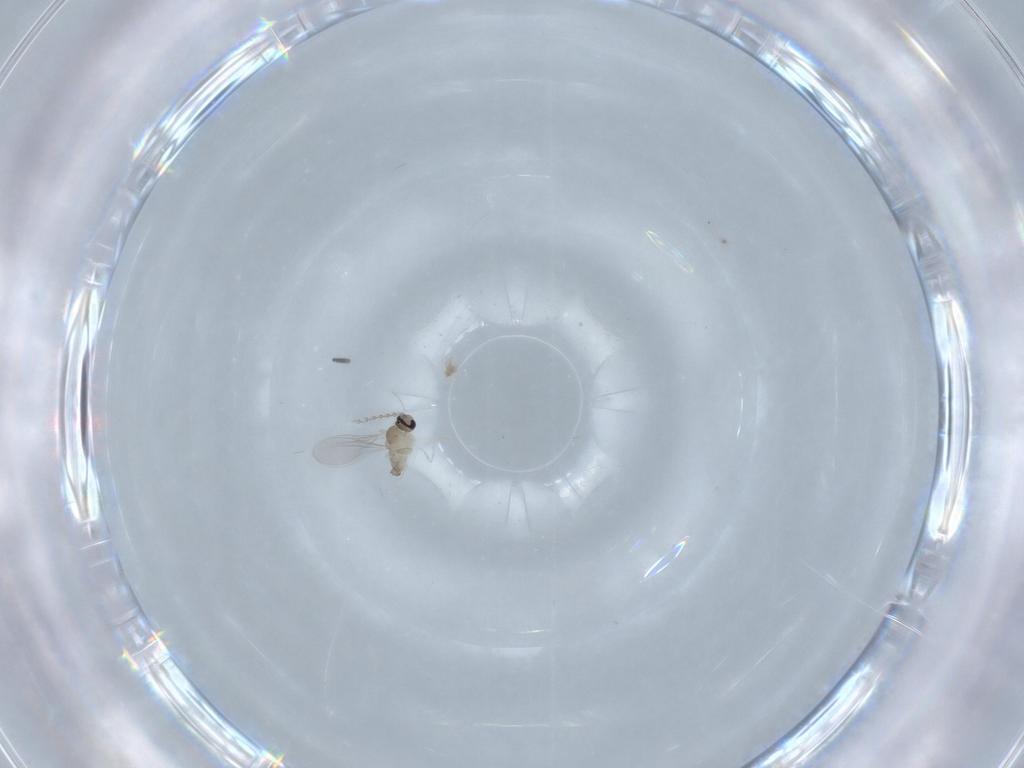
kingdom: Animalia
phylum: Arthropoda
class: Insecta
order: Diptera
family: Cecidomyiidae
